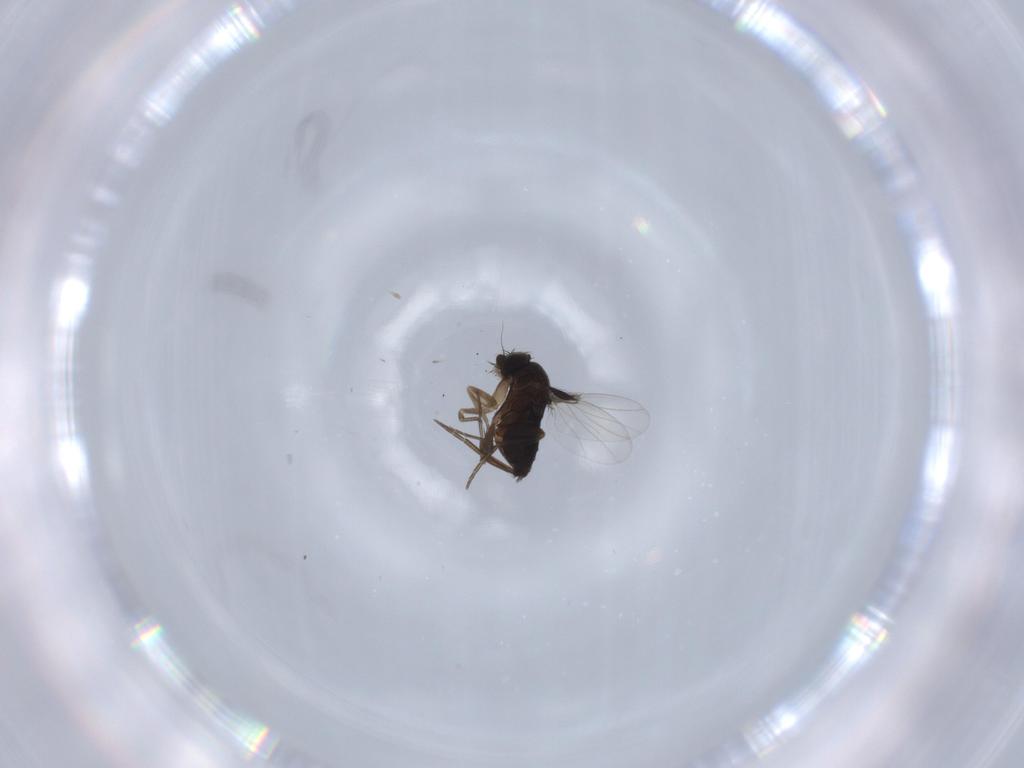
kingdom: Animalia
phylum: Arthropoda
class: Insecta
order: Diptera
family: Phoridae
